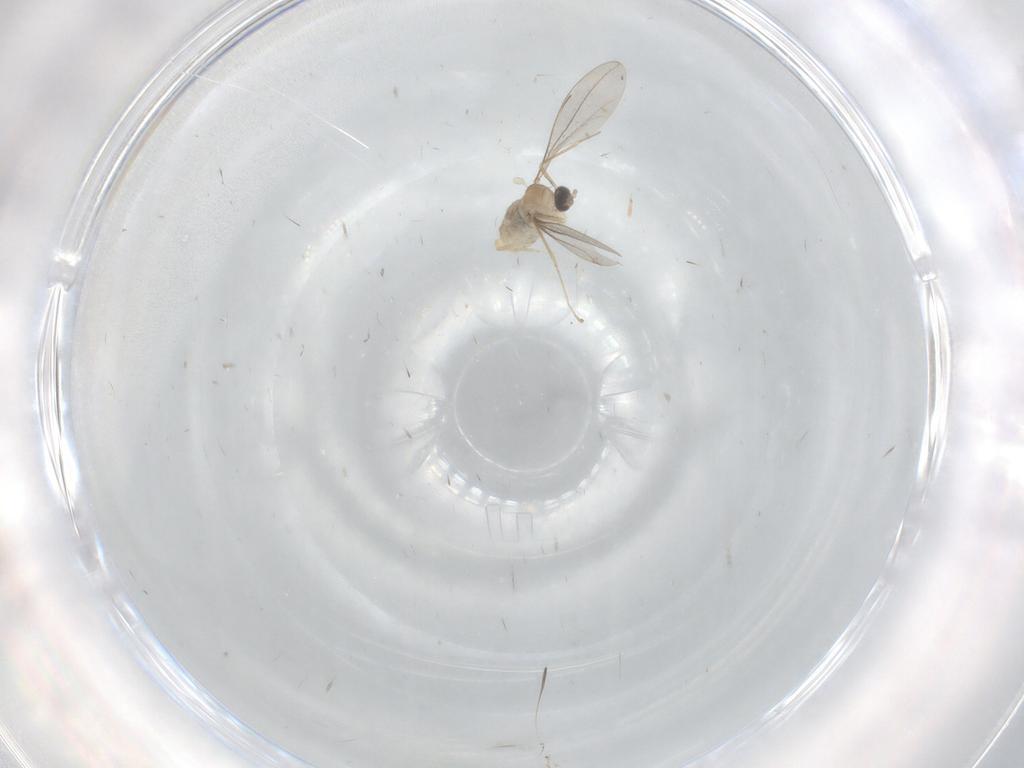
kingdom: Animalia
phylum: Arthropoda
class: Insecta
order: Diptera
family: Cecidomyiidae
